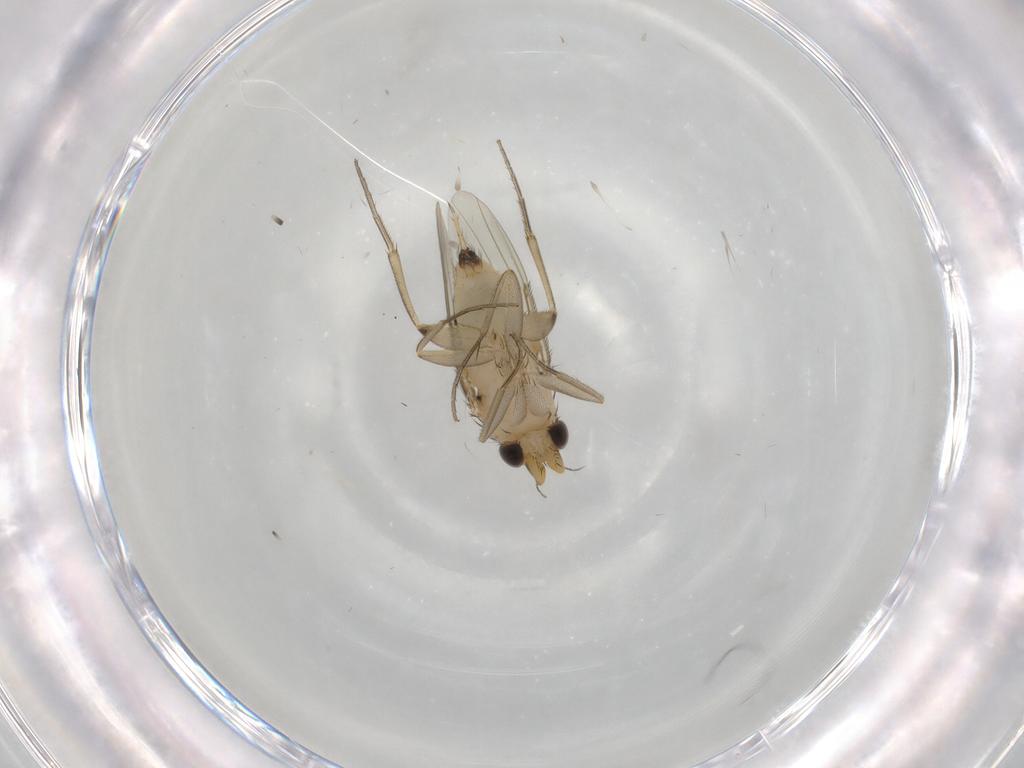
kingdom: Animalia
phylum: Arthropoda
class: Insecta
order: Diptera
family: Phoridae
